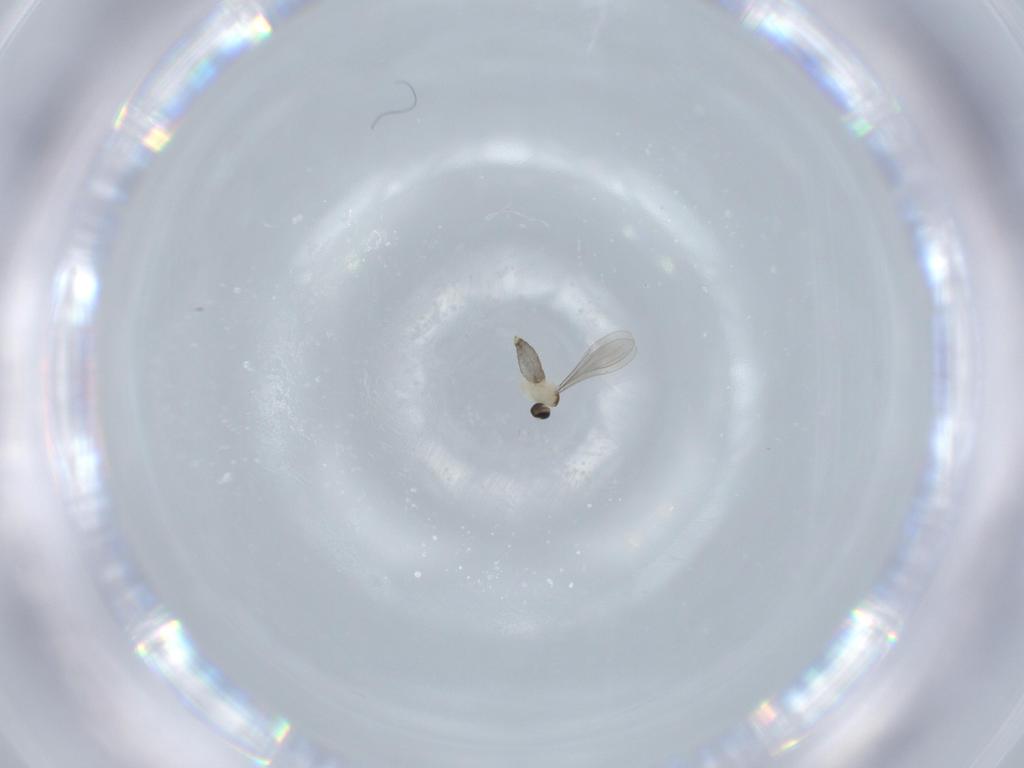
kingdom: Animalia
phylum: Arthropoda
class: Insecta
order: Diptera
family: Cecidomyiidae
